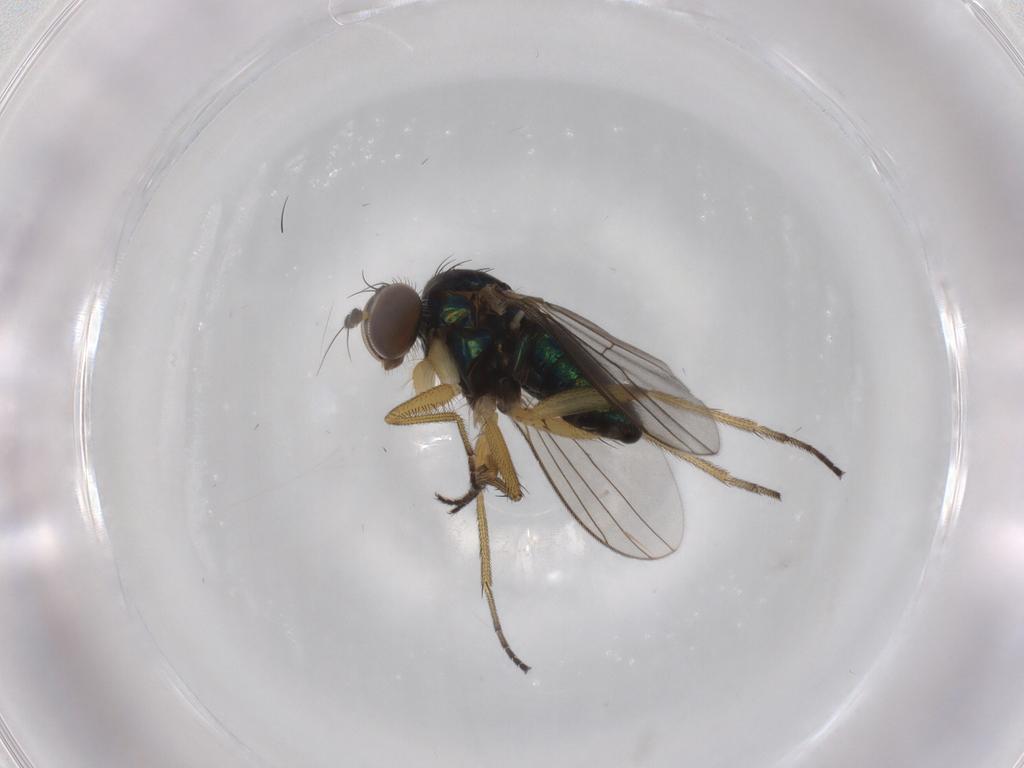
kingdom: Animalia
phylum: Arthropoda
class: Insecta
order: Diptera
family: Dolichopodidae
